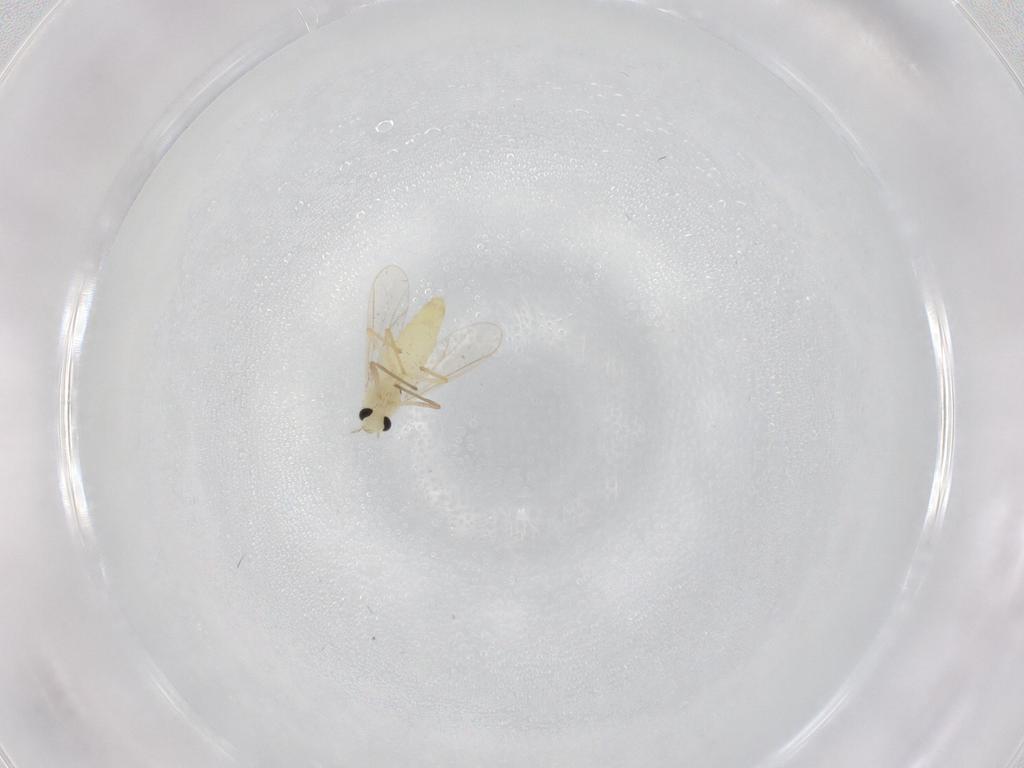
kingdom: Animalia
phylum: Arthropoda
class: Insecta
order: Diptera
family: Chironomidae
